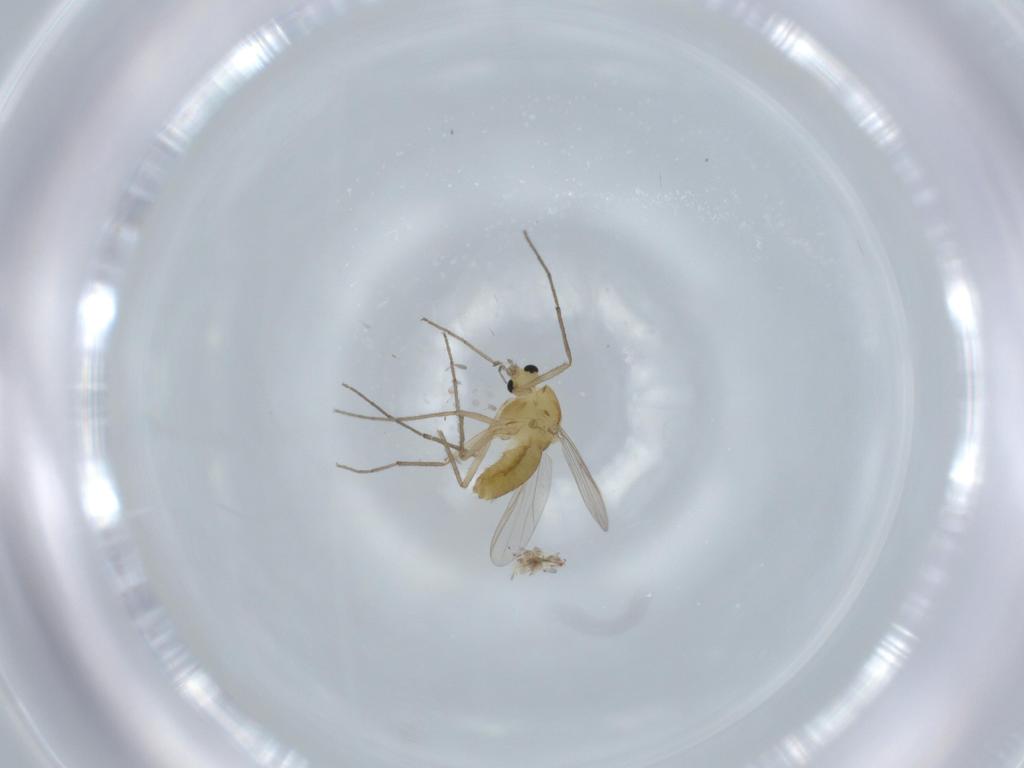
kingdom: Animalia
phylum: Arthropoda
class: Insecta
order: Diptera
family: Chironomidae
